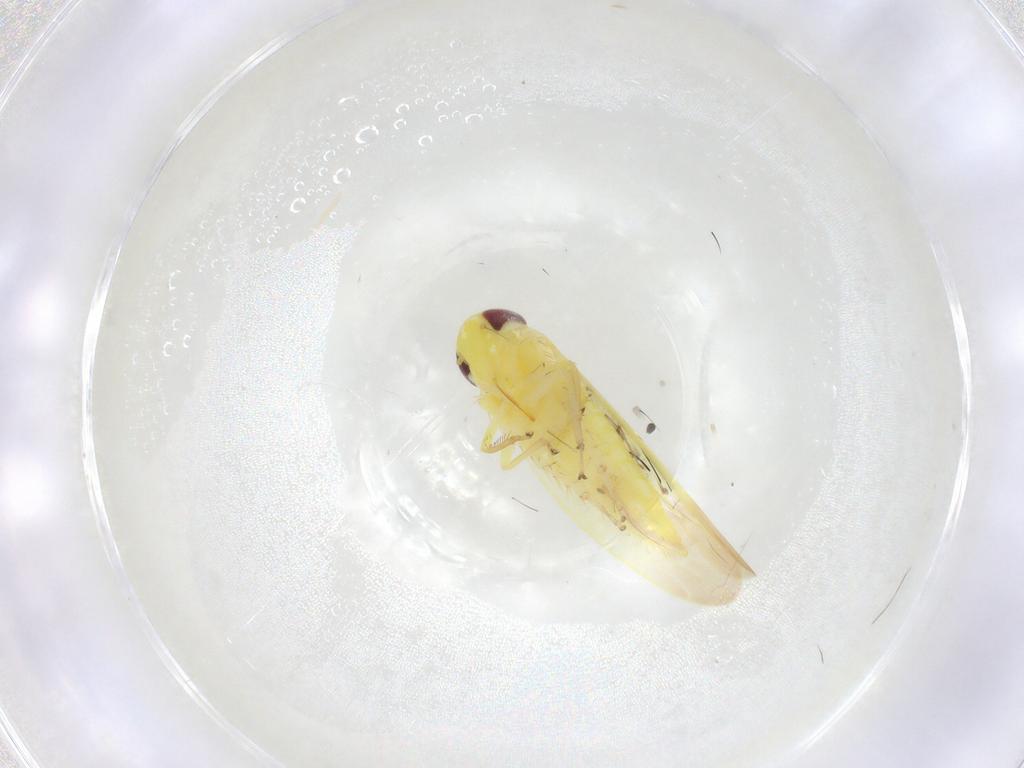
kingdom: Animalia
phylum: Arthropoda
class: Insecta
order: Hemiptera
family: Cicadellidae
